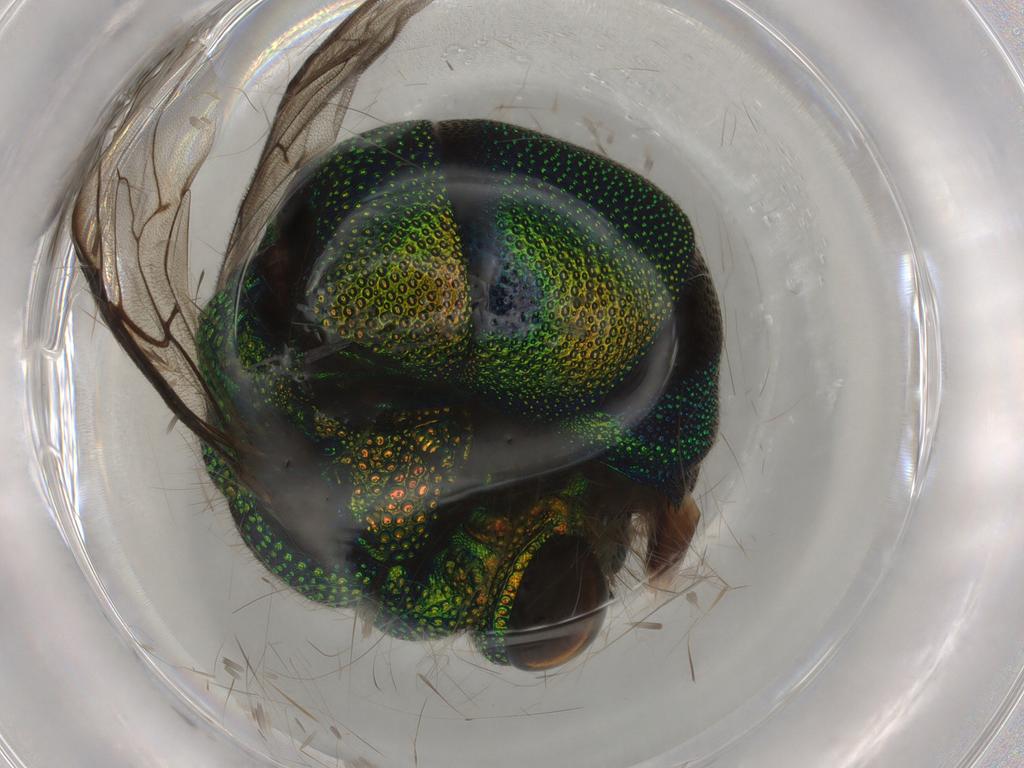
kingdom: Animalia
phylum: Arthropoda
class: Insecta
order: Hymenoptera
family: Chrysididae
